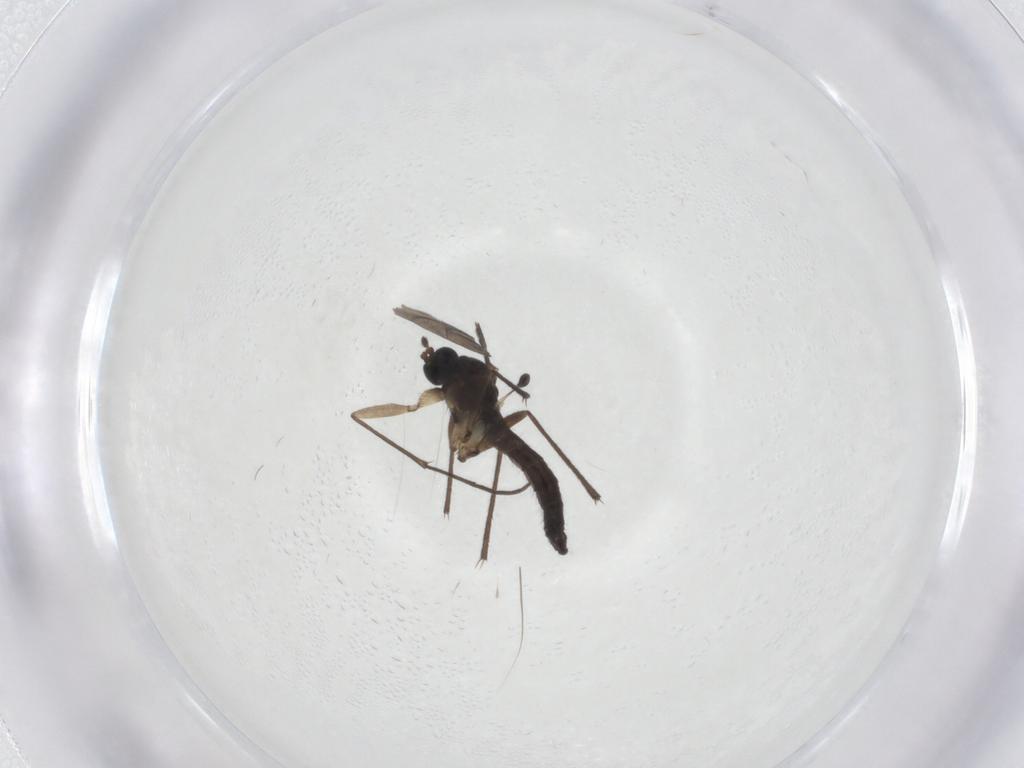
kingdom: Animalia
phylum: Arthropoda
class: Insecta
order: Diptera
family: Sciaridae
